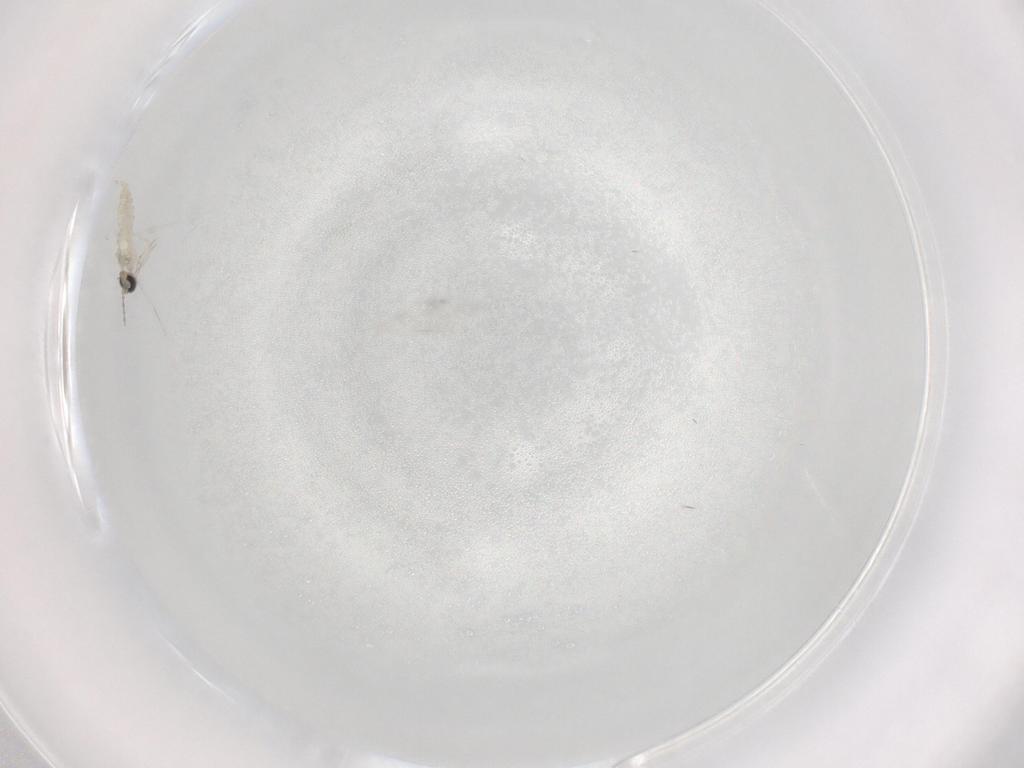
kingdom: Animalia
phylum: Arthropoda
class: Insecta
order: Diptera
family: Cecidomyiidae
